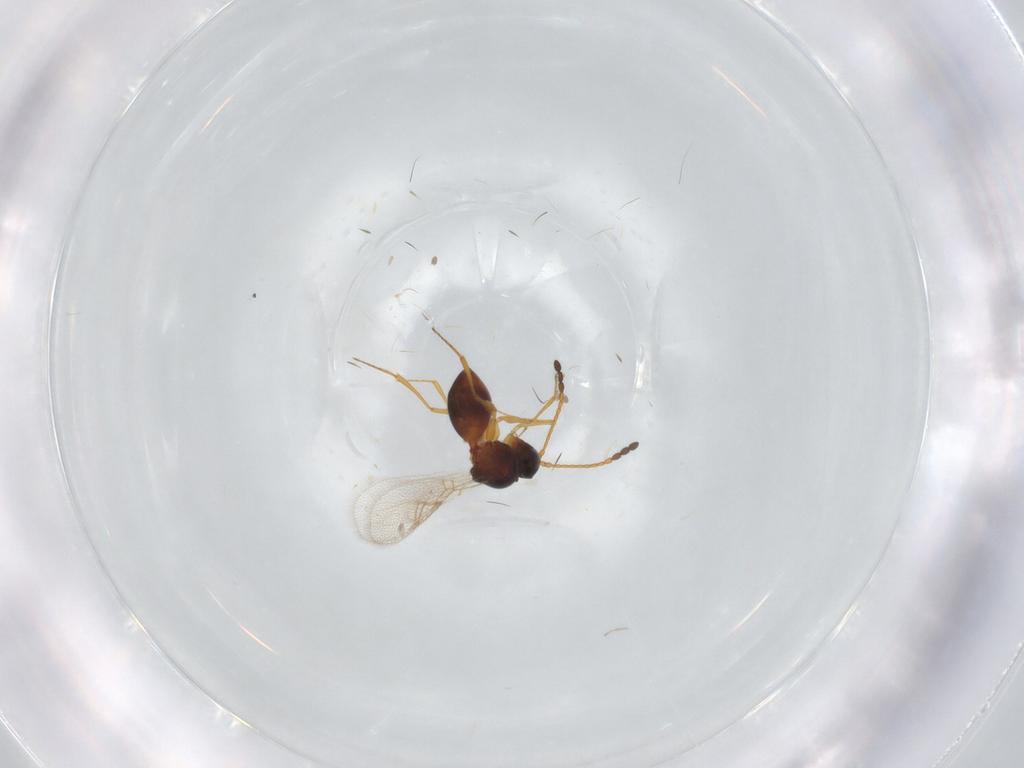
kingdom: Animalia
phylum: Arthropoda
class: Insecta
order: Hymenoptera
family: Figitidae
